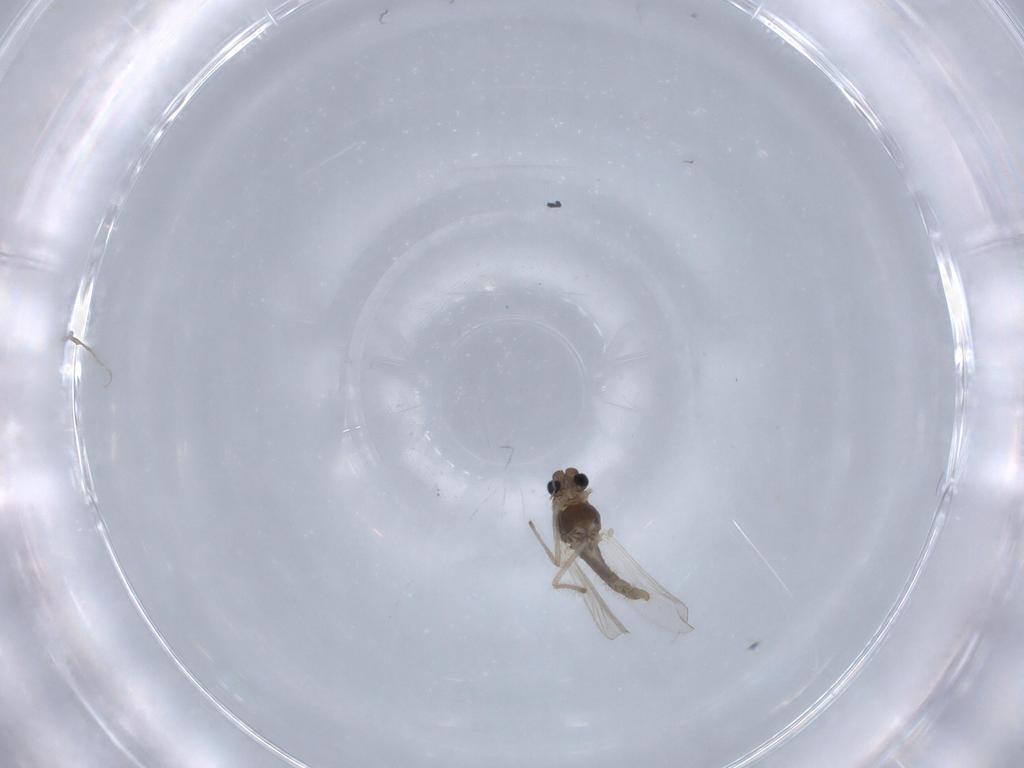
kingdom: Animalia
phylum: Arthropoda
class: Insecta
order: Diptera
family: Chironomidae
